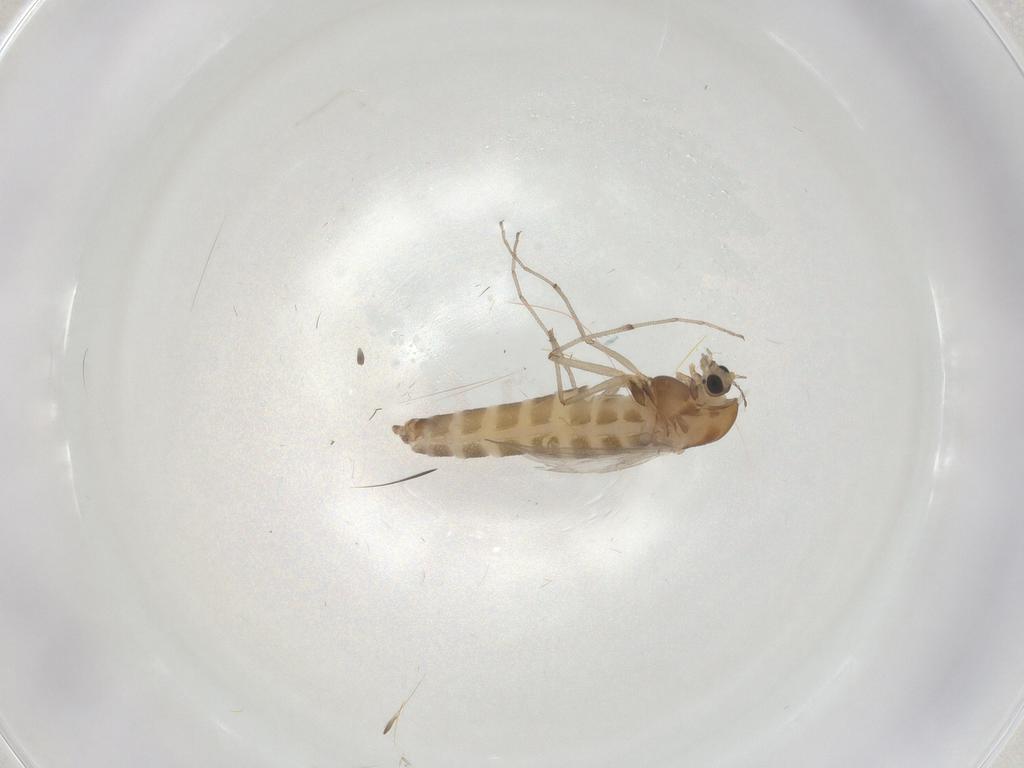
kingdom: Animalia
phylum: Arthropoda
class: Insecta
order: Diptera
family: Chironomidae
